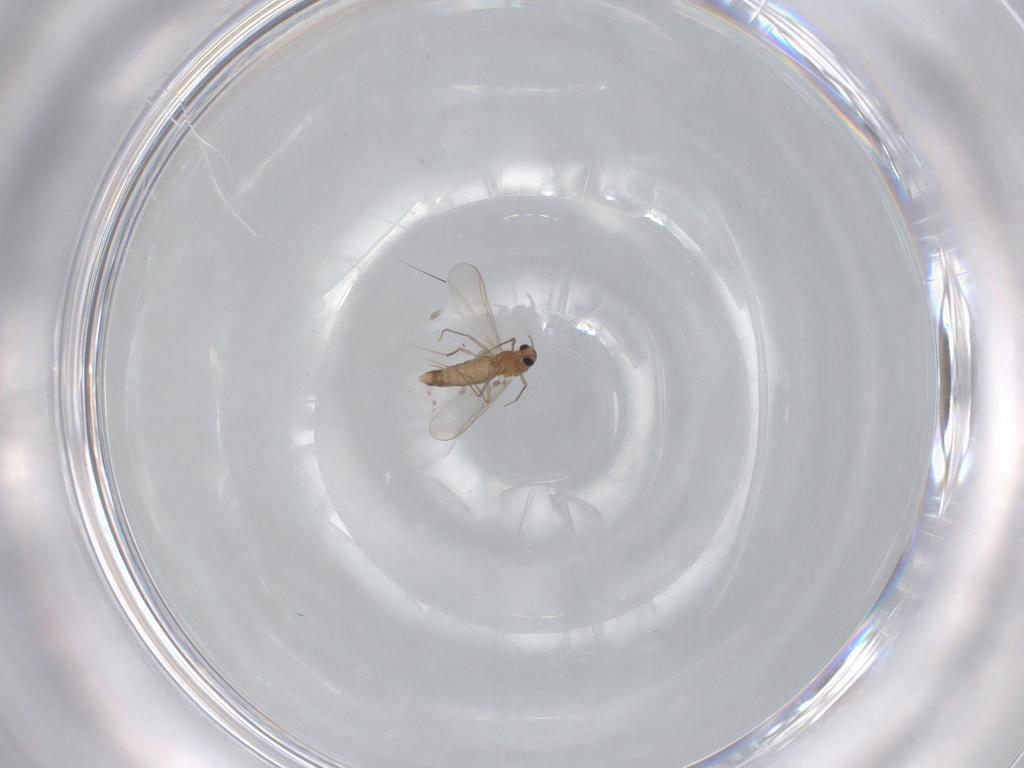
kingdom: Animalia
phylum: Arthropoda
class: Insecta
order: Diptera
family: Chironomidae
